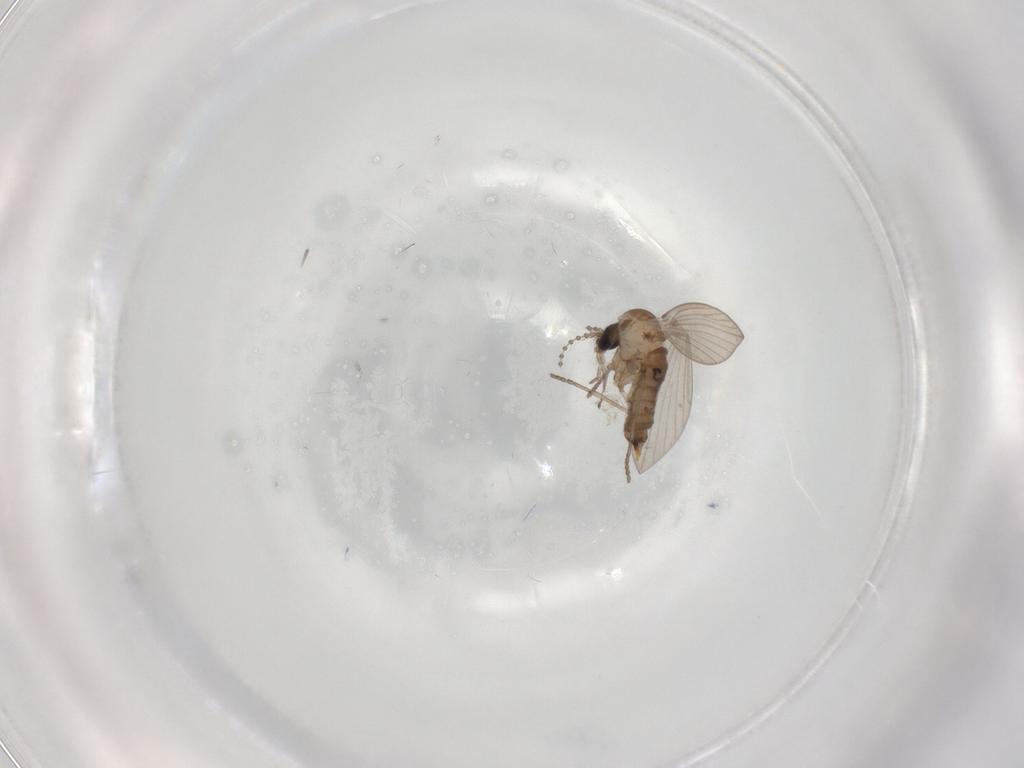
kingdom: Animalia
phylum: Arthropoda
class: Insecta
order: Diptera
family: Psychodidae
